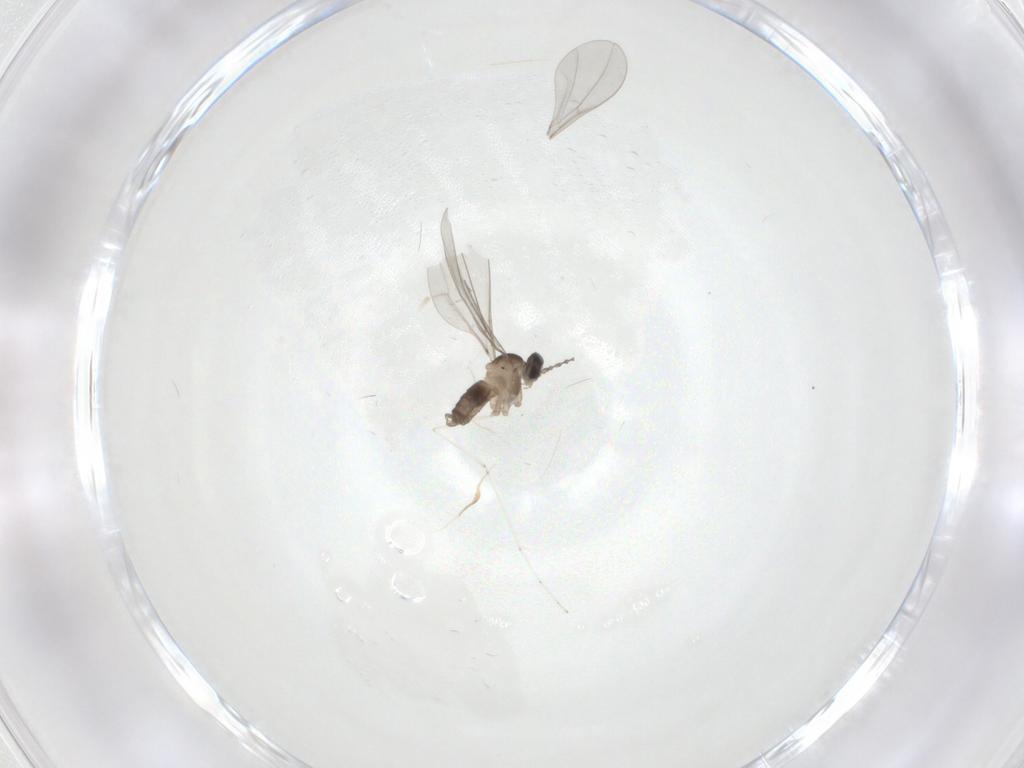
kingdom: Animalia
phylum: Arthropoda
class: Insecta
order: Diptera
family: Cecidomyiidae
